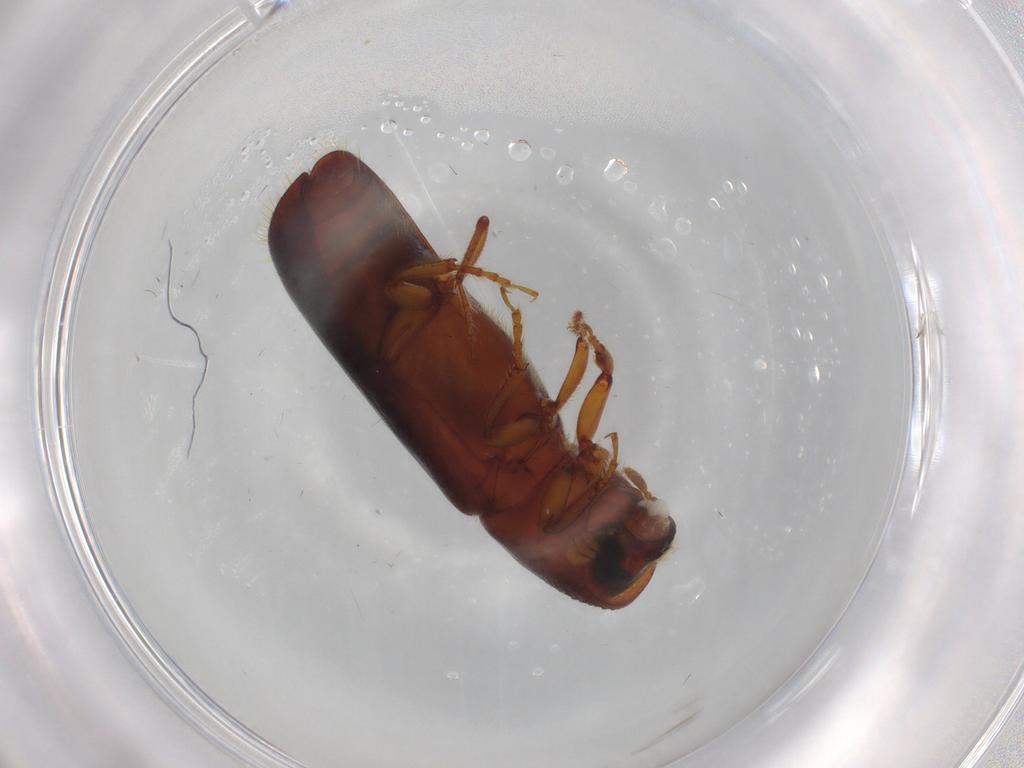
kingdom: Animalia
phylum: Arthropoda
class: Insecta
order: Coleoptera
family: Curculionidae
